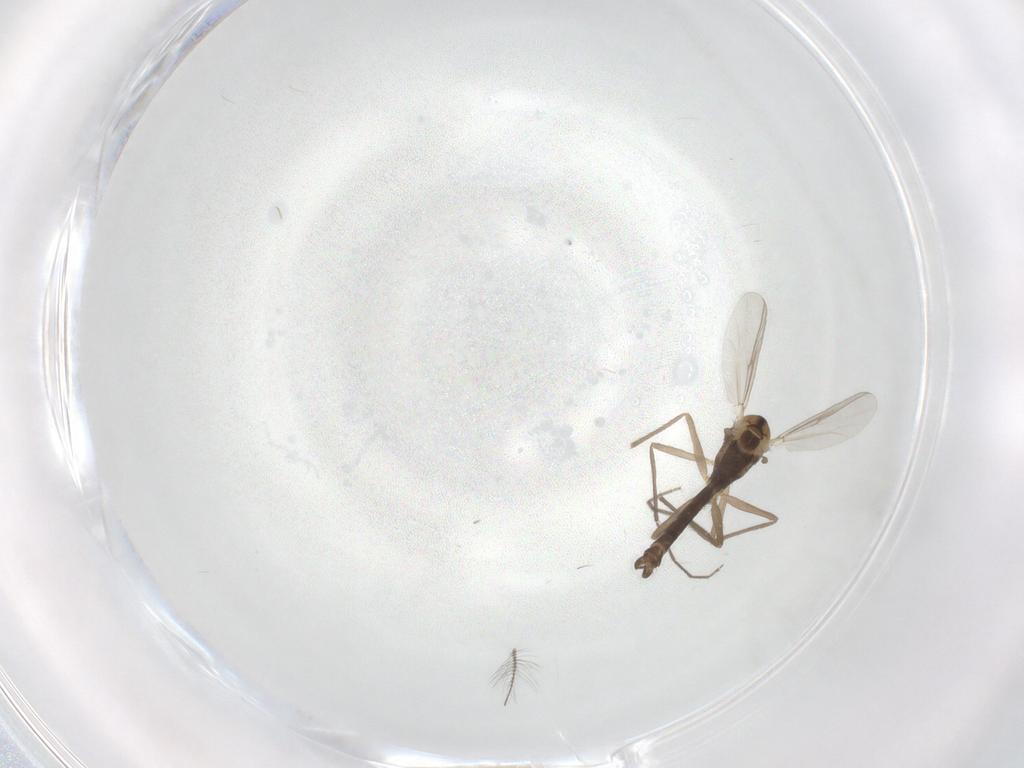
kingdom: Animalia
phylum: Arthropoda
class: Insecta
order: Diptera
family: Chironomidae
